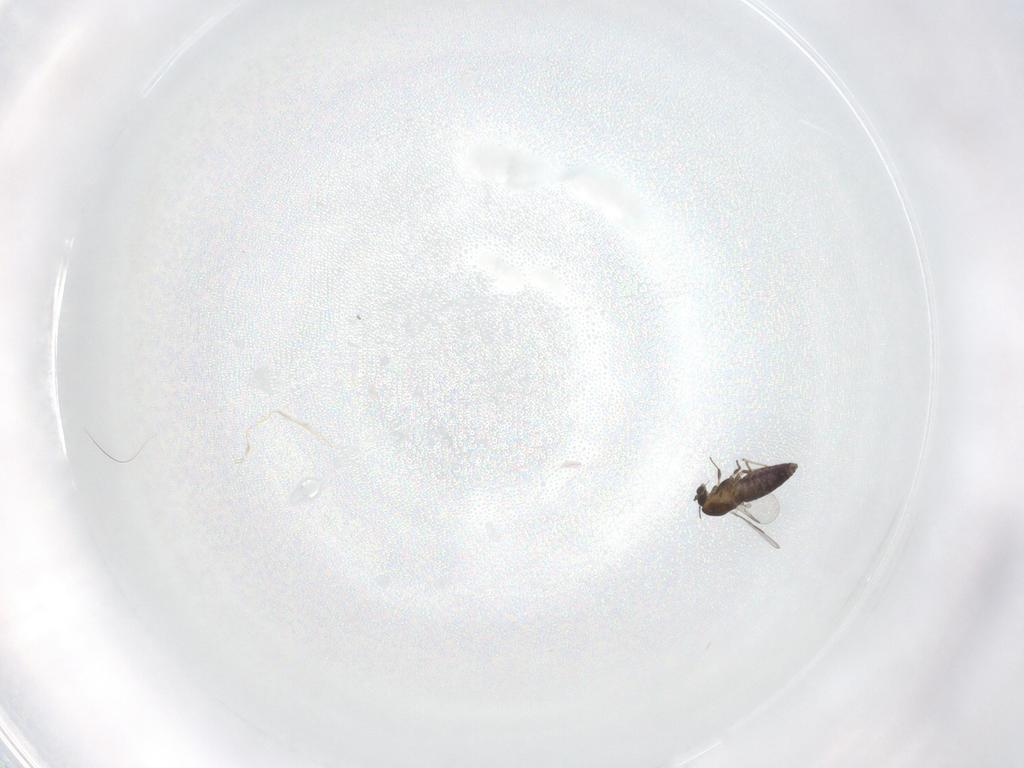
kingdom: Animalia
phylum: Arthropoda
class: Insecta
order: Diptera
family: Chironomidae
